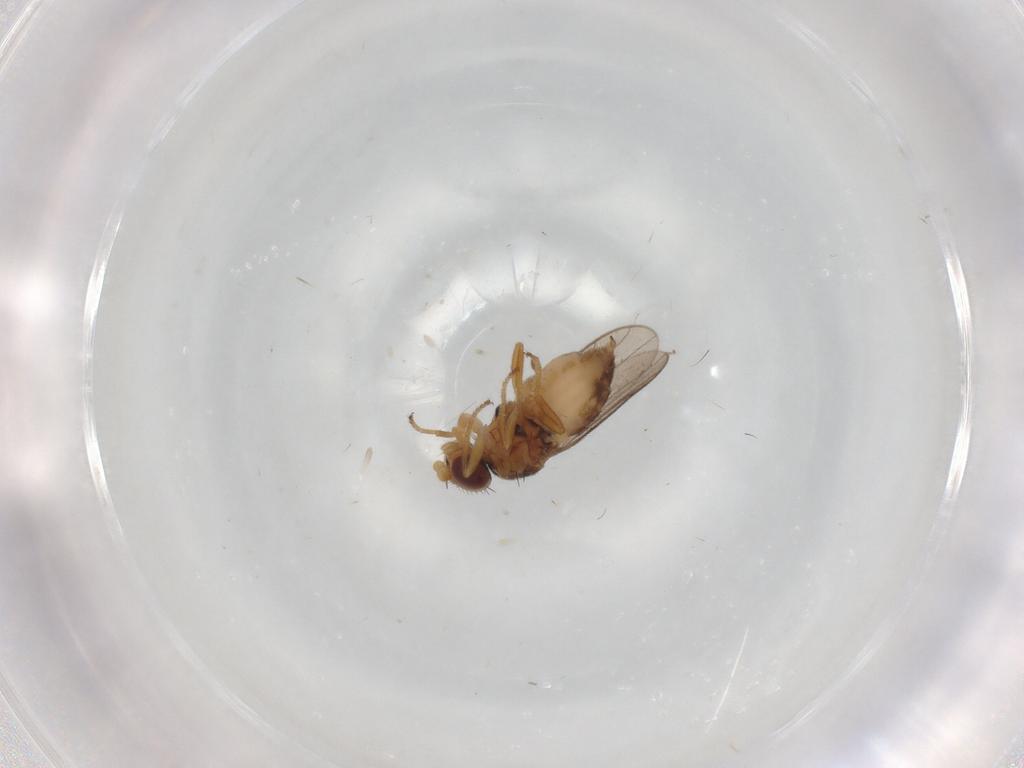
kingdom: Animalia
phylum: Arthropoda
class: Insecta
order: Diptera
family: Chloropidae
